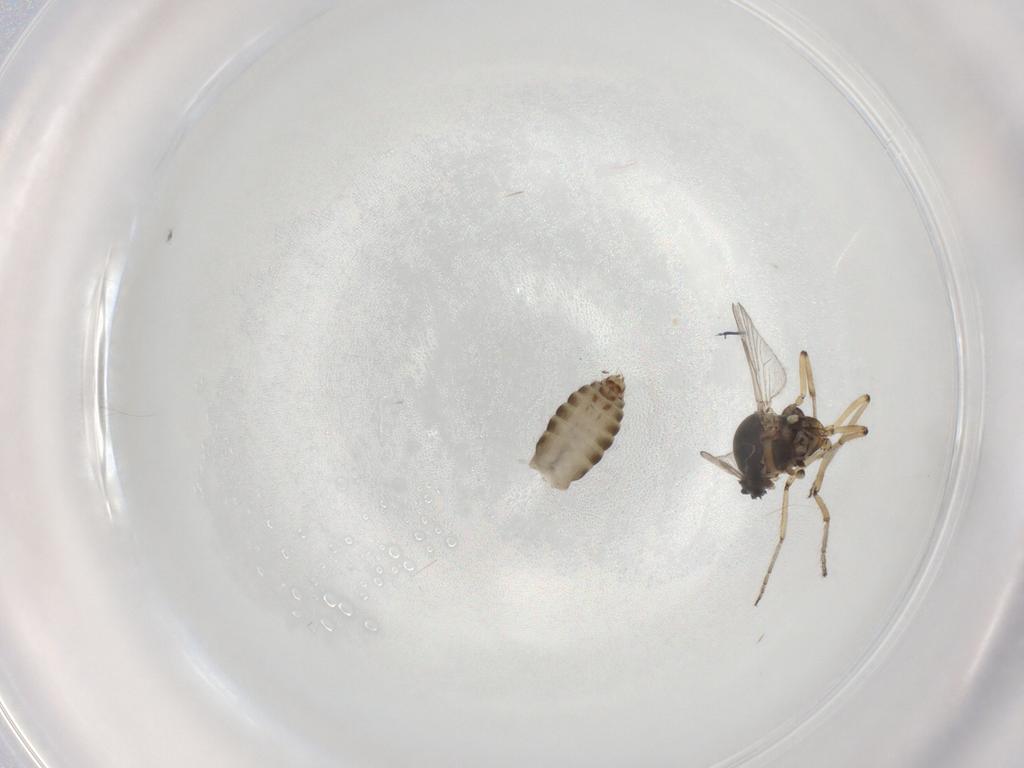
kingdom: Animalia
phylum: Arthropoda
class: Insecta
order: Diptera
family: Ceratopogonidae
